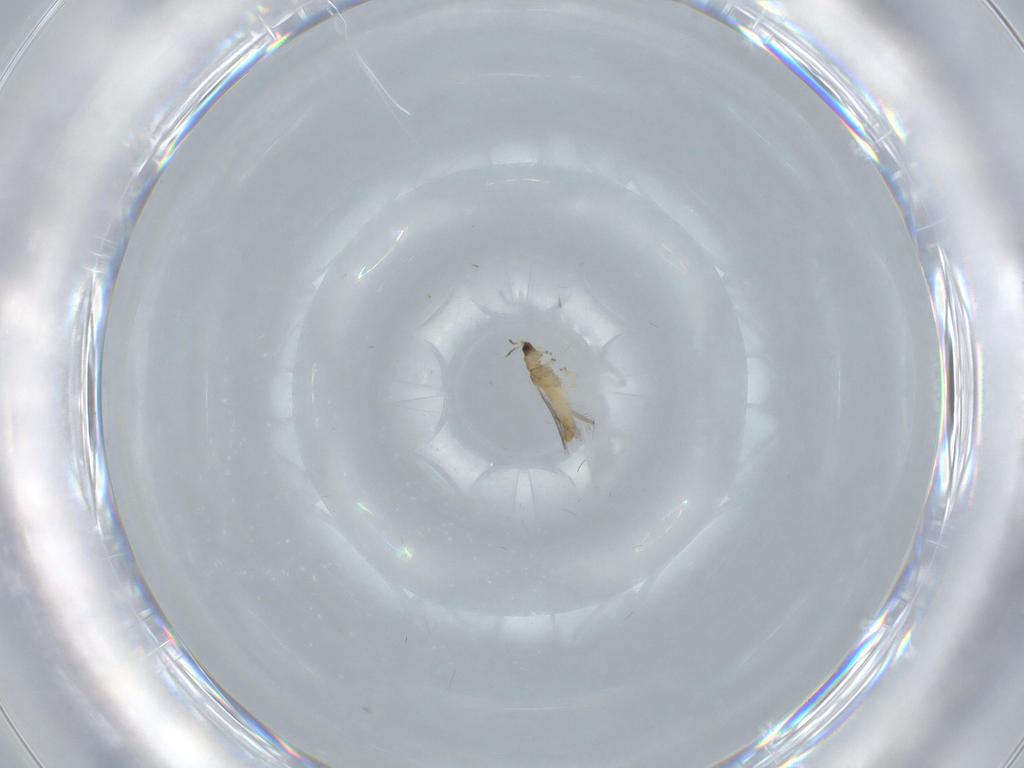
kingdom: Animalia
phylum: Arthropoda
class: Insecta
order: Thysanoptera
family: Thripidae
